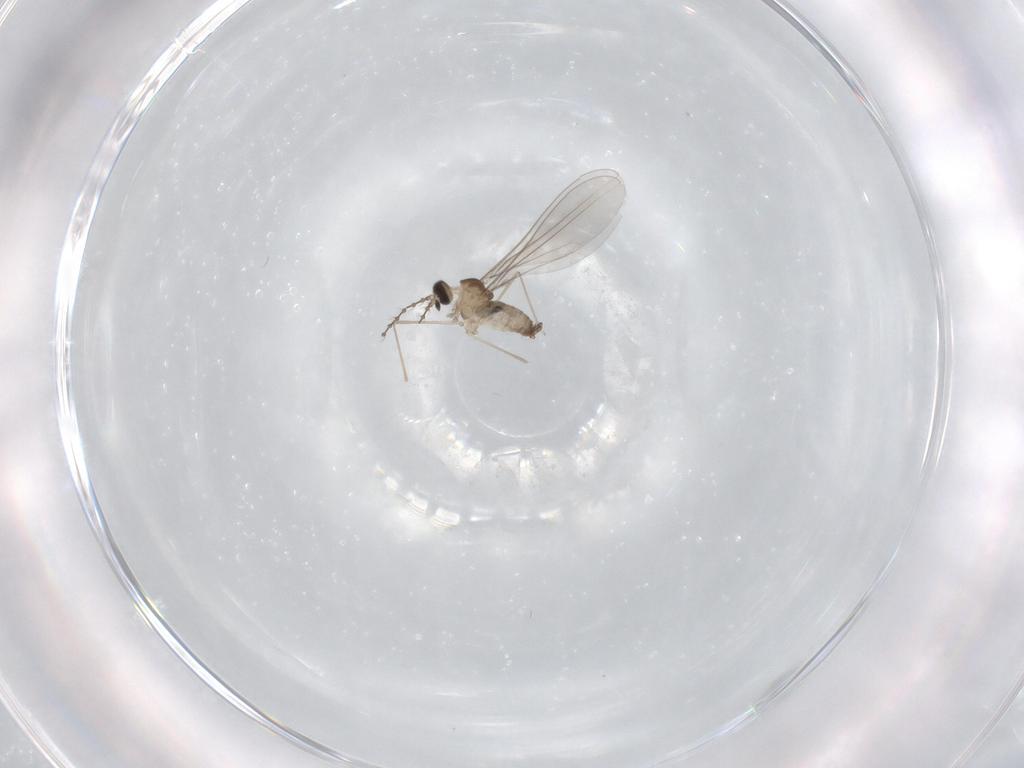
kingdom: Animalia
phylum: Arthropoda
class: Insecta
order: Diptera
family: Cecidomyiidae
